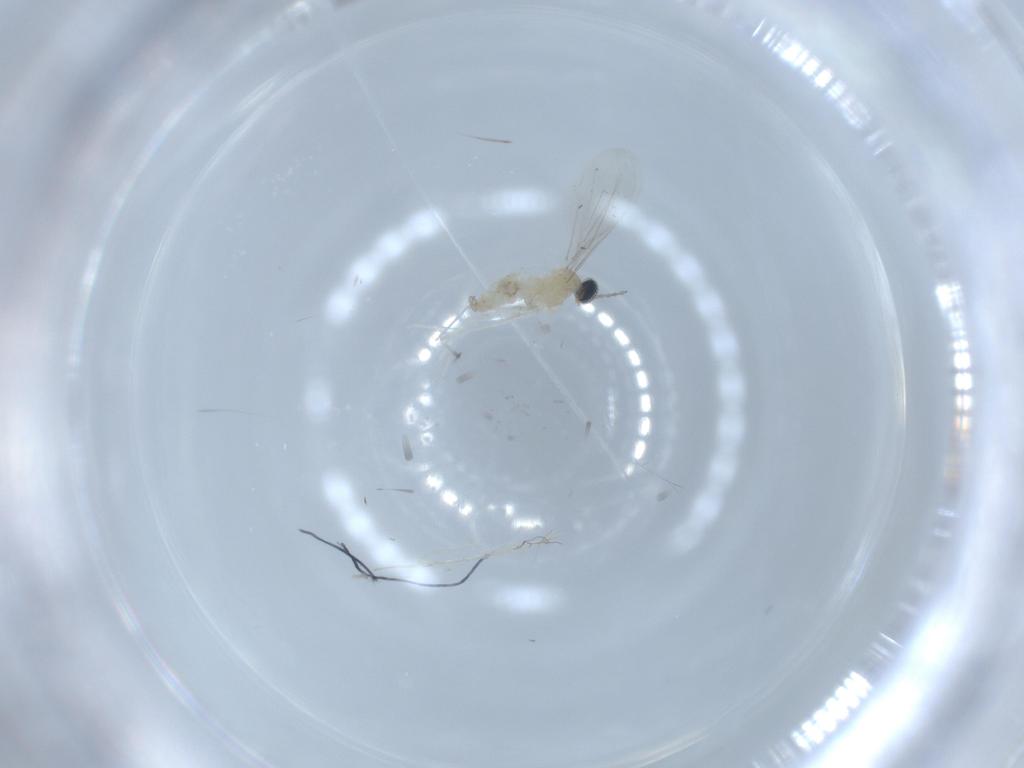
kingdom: Animalia
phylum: Arthropoda
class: Insecta
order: Diptera
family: Cecidomyiidae
